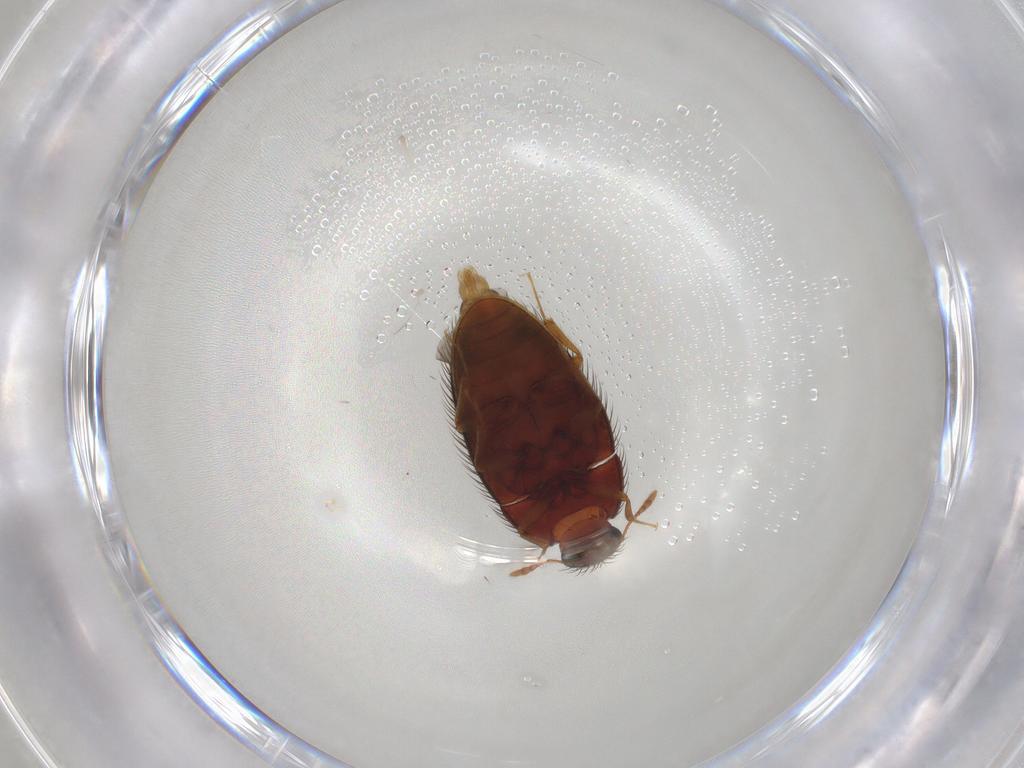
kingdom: Animalia
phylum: Arthropoda
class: Insecta
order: Coleoptera
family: Biphyllidae
